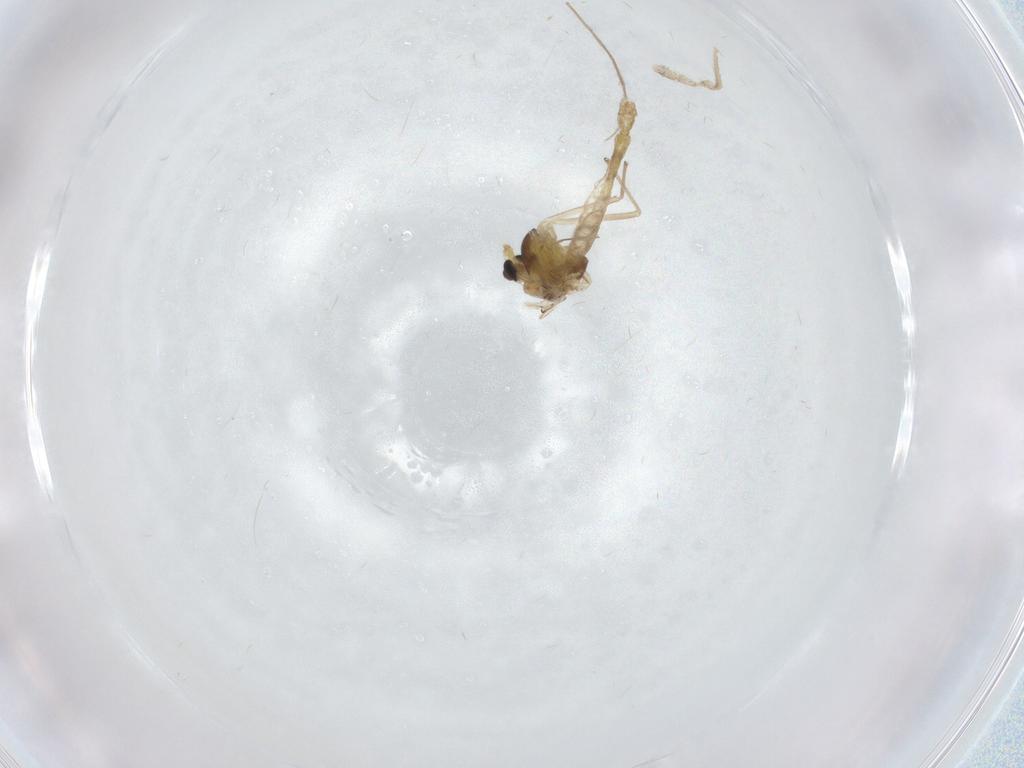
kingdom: Animalia
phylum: Arthropoda
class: Insecta
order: Diptera
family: Chironomidae
